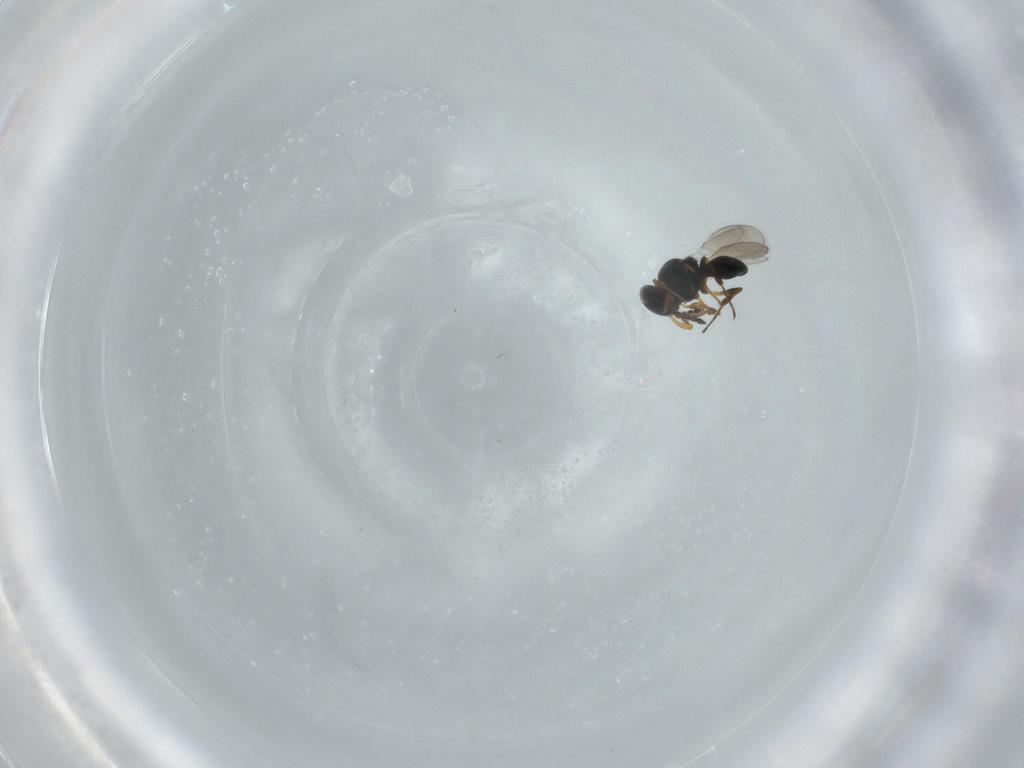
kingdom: Animalia
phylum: Arthropoda
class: Insecta
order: Hymenoptera
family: Platygastridae
